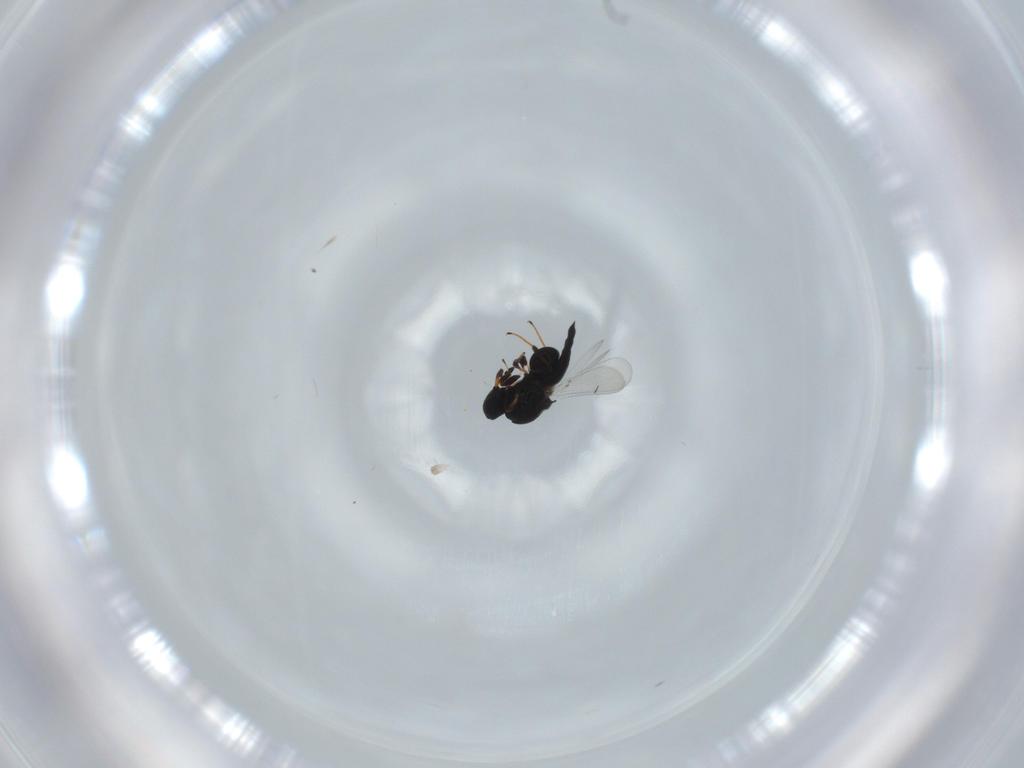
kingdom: Animalia
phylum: Arthropoda
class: Insecta
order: Hymenoptera
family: Platygastridae
